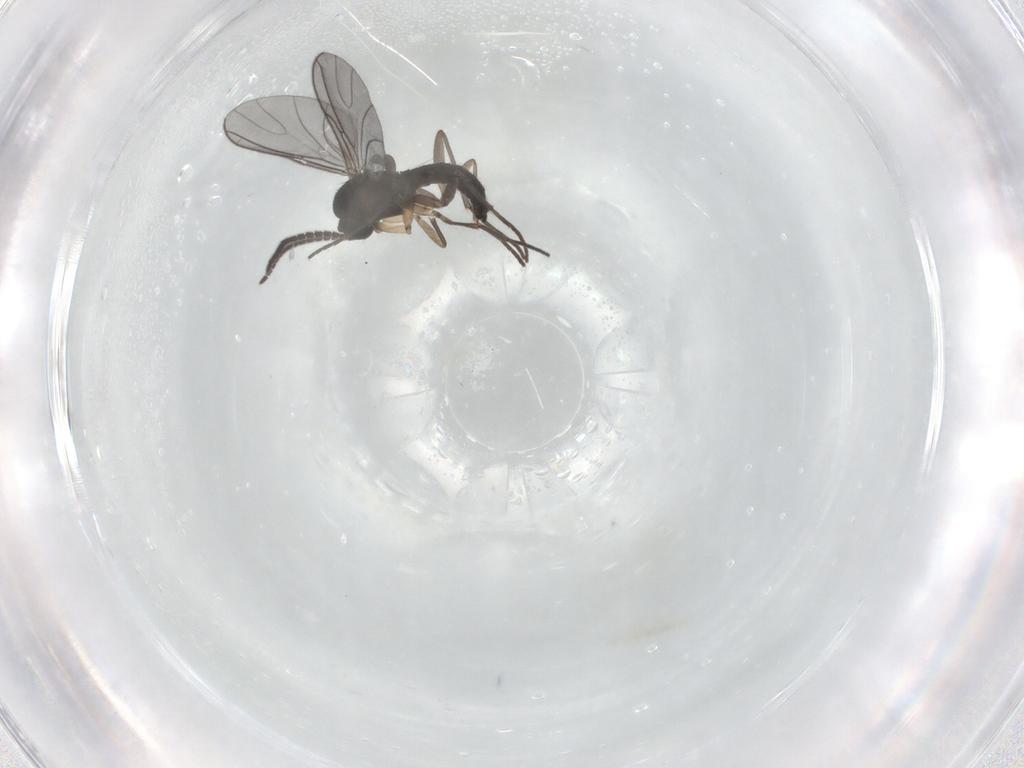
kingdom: Animalia
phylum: Arthropoda
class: Insecta
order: Diptera
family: Sciaridae
